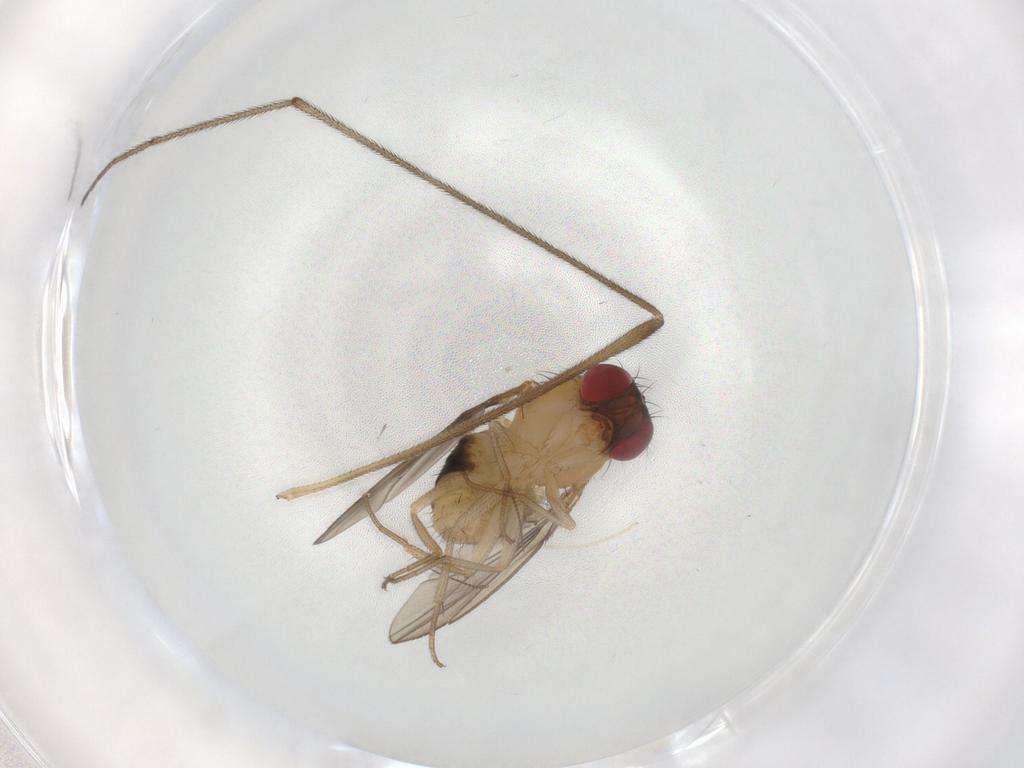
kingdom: Animalia
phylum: Arthropoda
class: Insecta
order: Diptera
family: Drosophilidae
